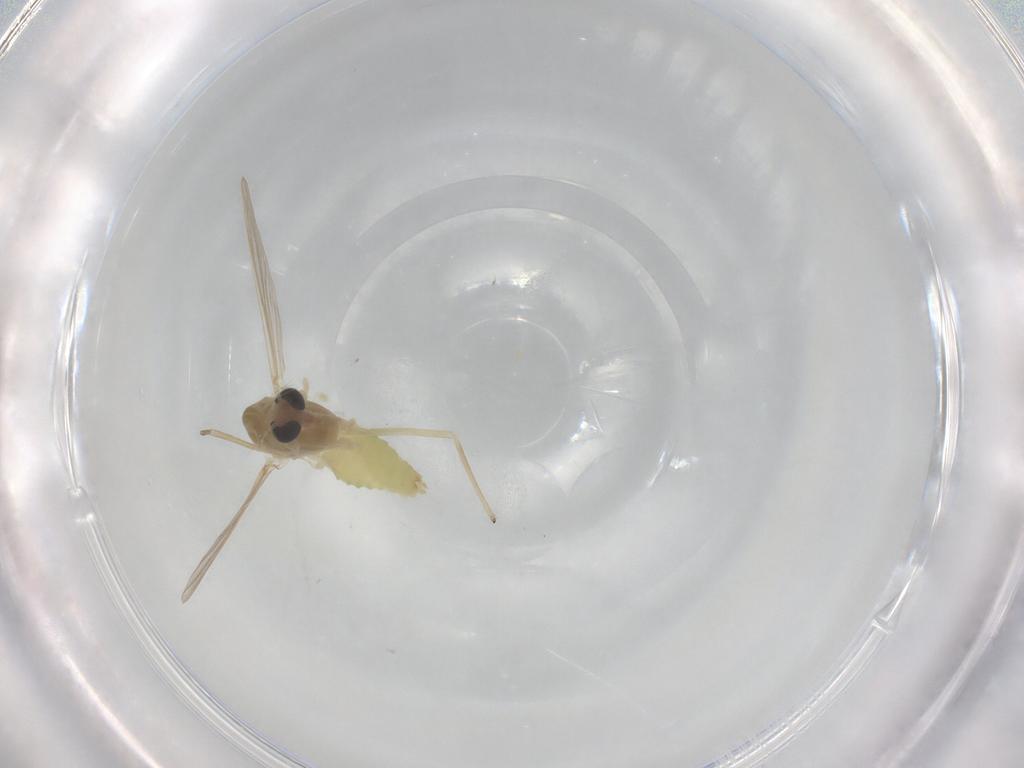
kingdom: Animalia
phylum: Arthropoda
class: Insecta
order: Diptera
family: Chironomidae
